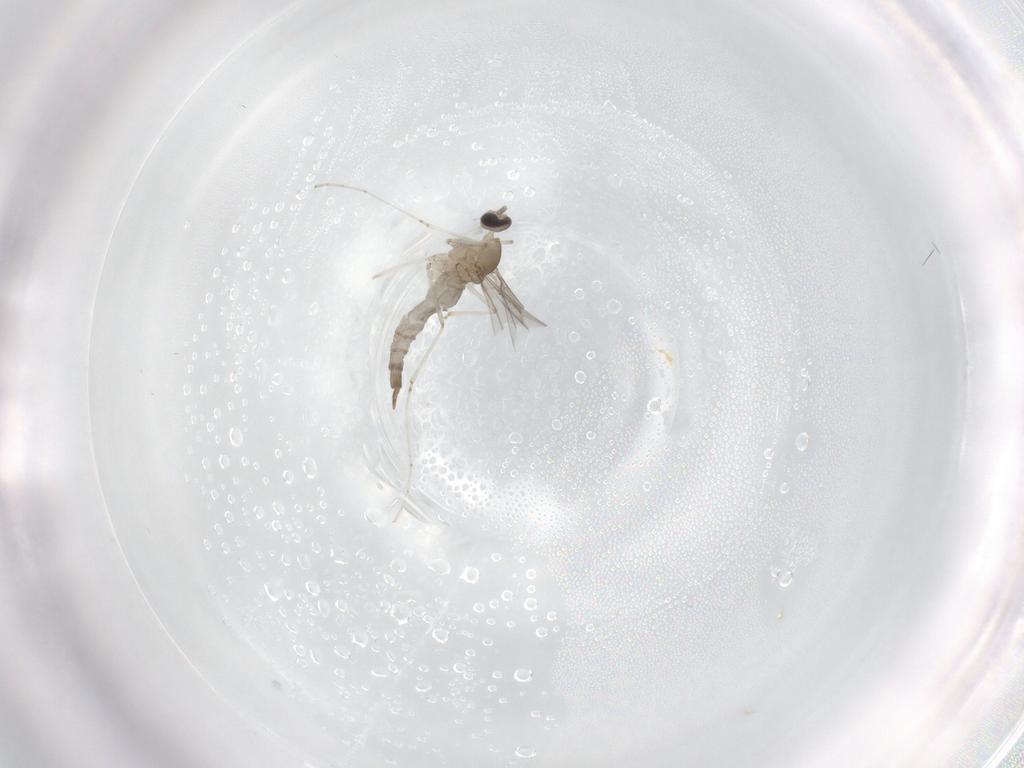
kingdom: Animalia
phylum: Arthropoda
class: Insecta
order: Diptera
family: Cecidomyiidae
